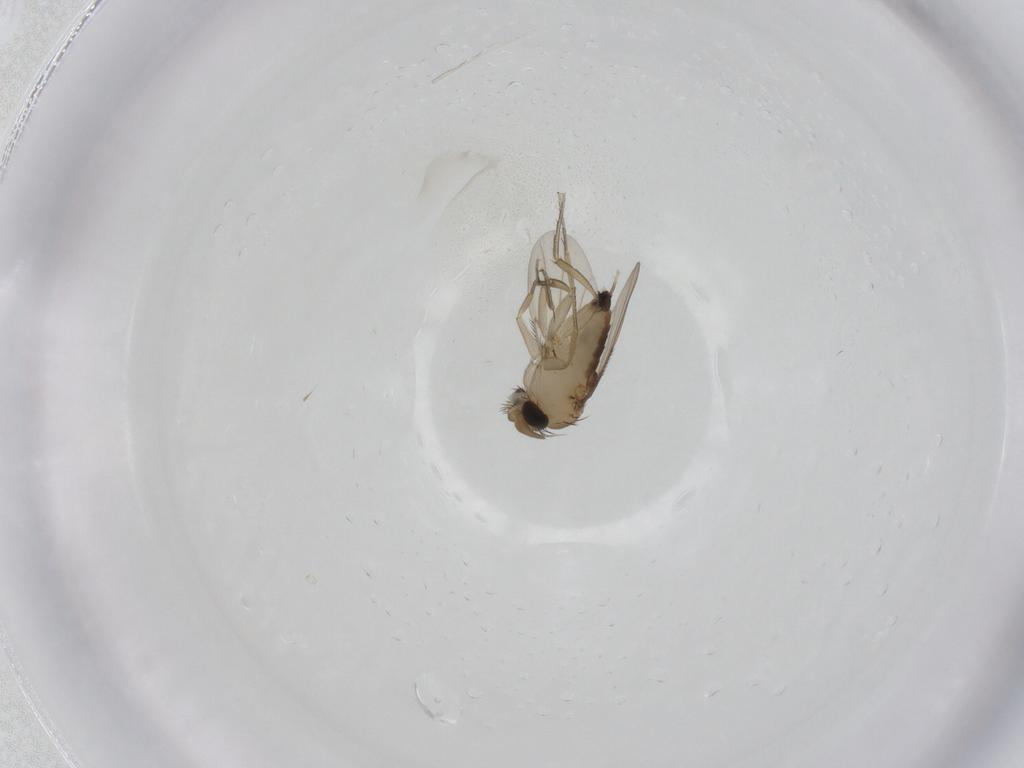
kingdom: Animalia
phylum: Arthropoda
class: Insecta
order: Diptera
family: Phoridae
